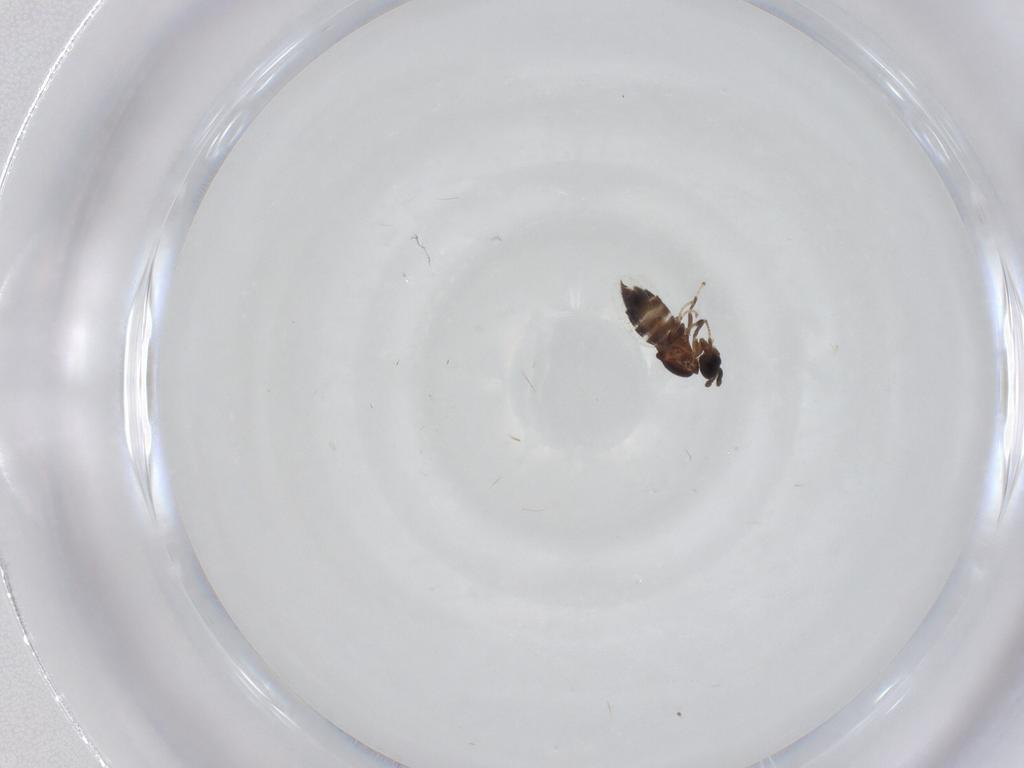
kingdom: Animalia
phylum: Arthropoda
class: Insecta
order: Diptera
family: Scatopsidae
